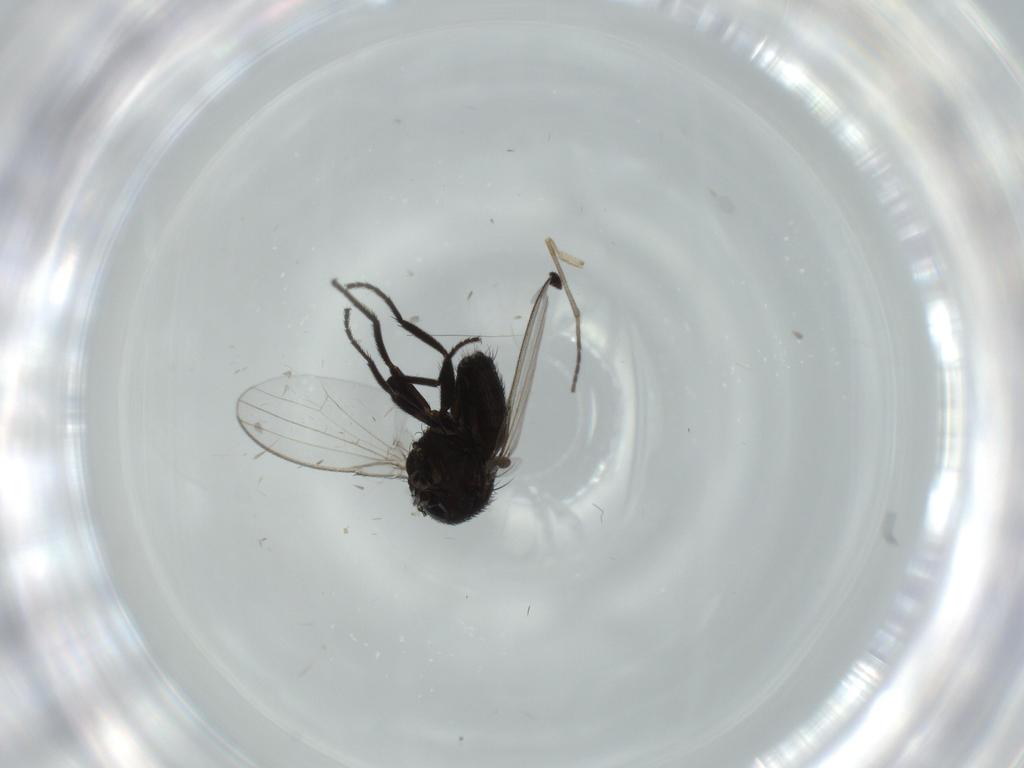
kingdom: Animalia
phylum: Arthropoda
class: Insecta
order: Diptera
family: Milichiidae
